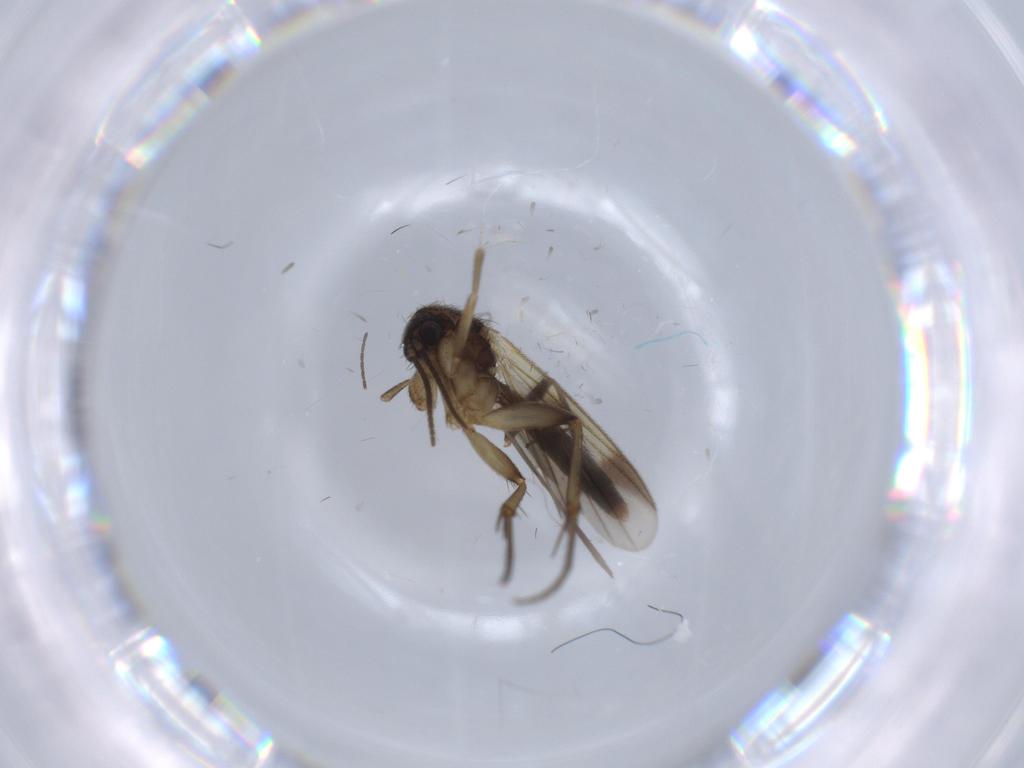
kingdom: Animalia
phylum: Arthropoda
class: Insecta
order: Diptera
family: Mycetophilidae
